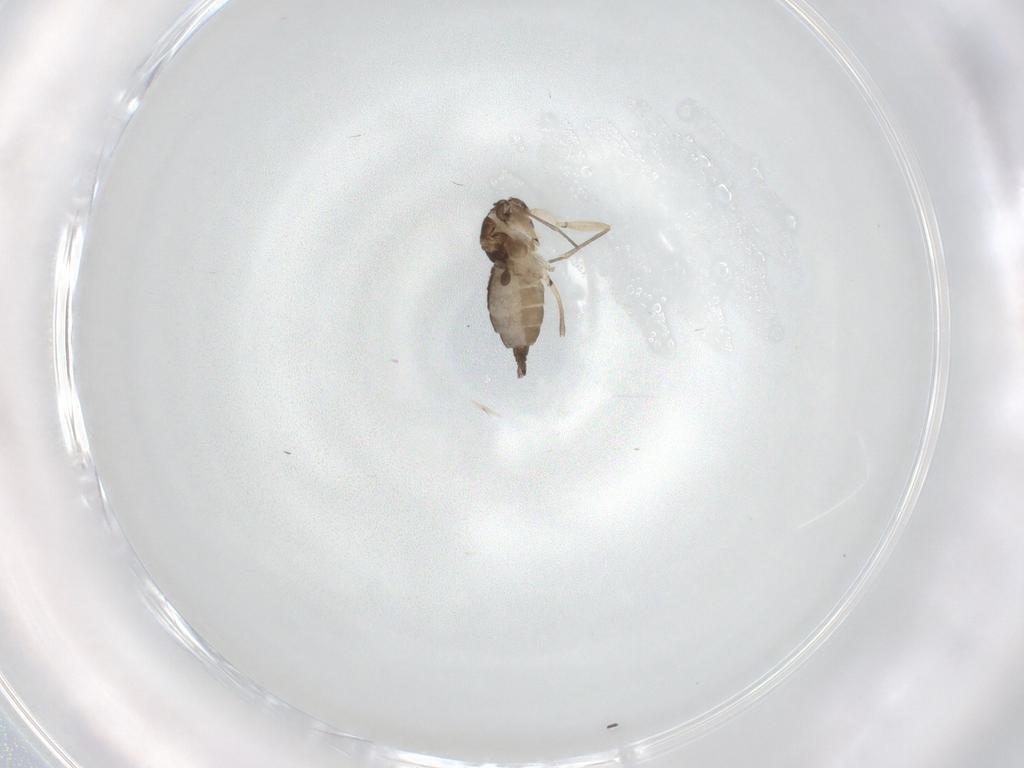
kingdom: Animalia
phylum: Arthropoda
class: Insecta
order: Diptera
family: Sciaridae
